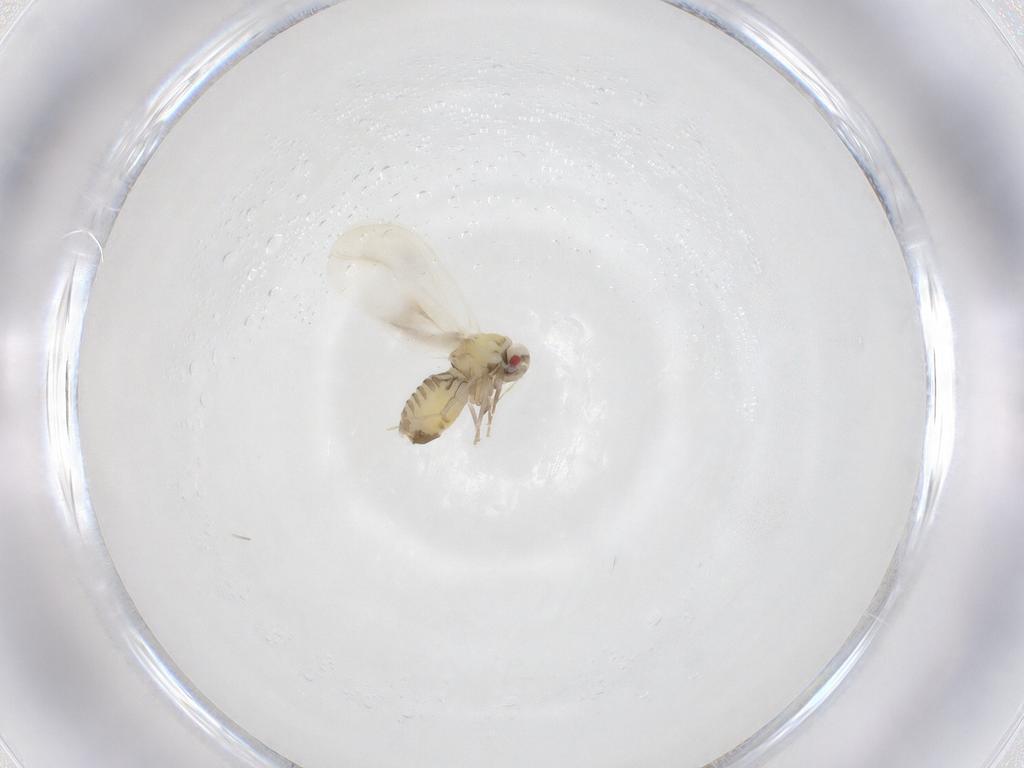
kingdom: Animalia
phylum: Arthropoda
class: Insecta
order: Hemiptera
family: Aleyrodidae
